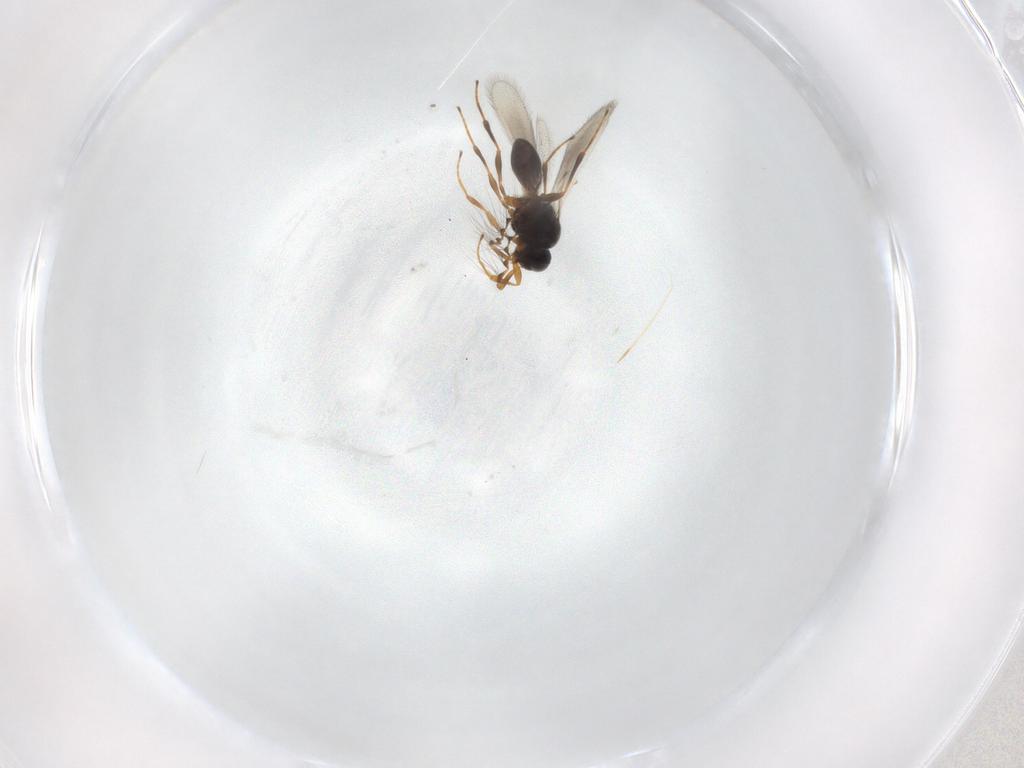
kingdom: Animalia
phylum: Arthropoda
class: Insecta
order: Hymenoptera
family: Platygastridae
